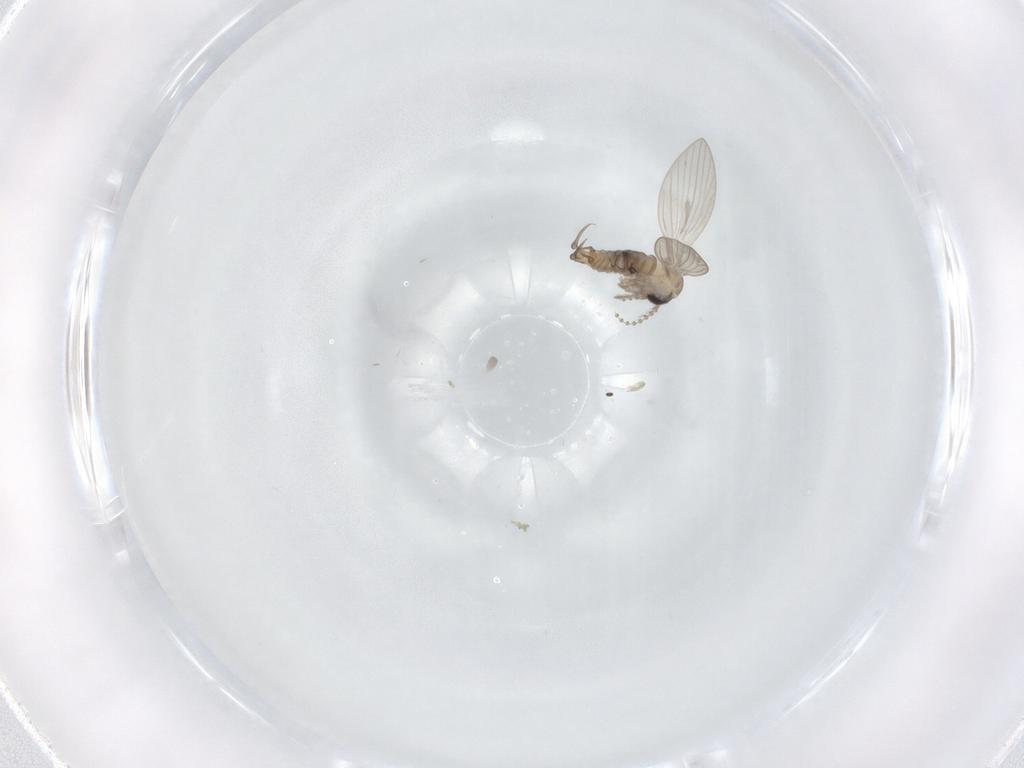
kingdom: Animalia
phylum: Arthropoda
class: Insecta
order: Diptera
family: Psychodidae
